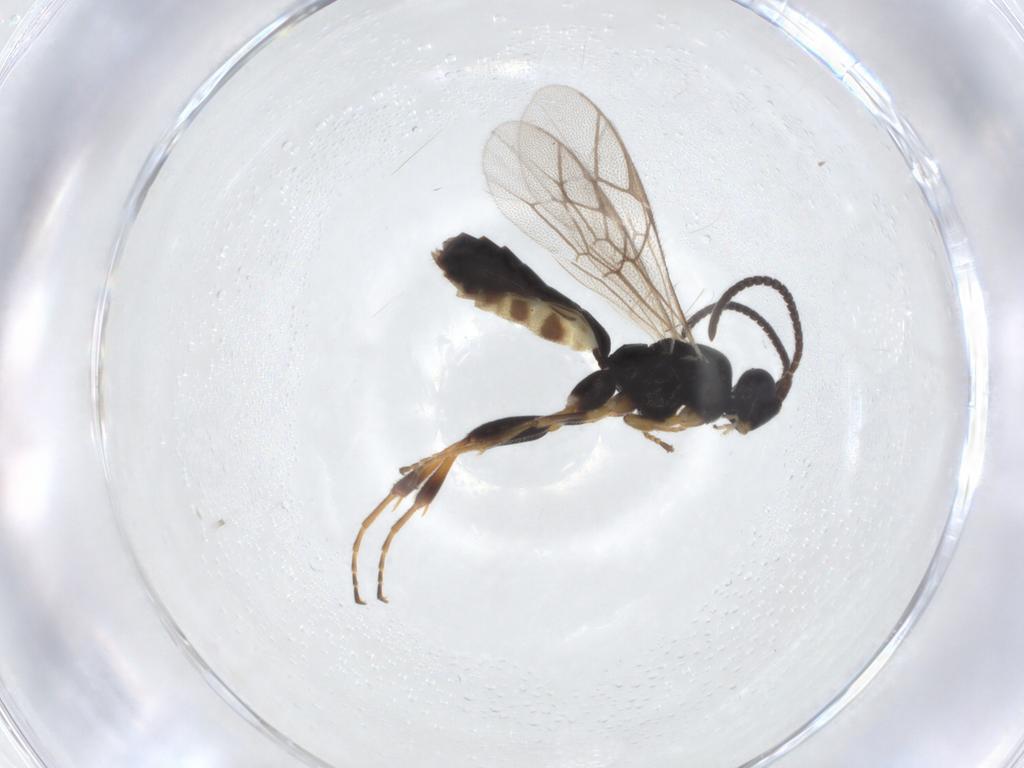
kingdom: Animalia
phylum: Arthropoda
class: Insecta
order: Hymenoptera
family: Ichneumonidae
